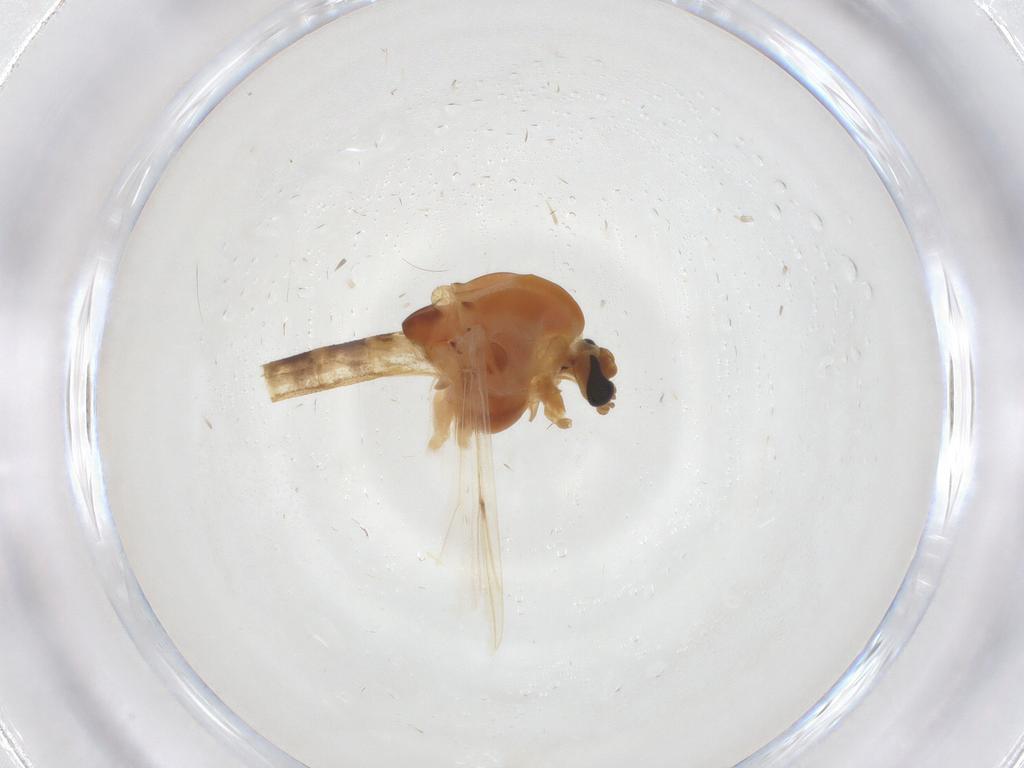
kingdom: Animalia
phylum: Arthropoda
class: Insecta
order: Diptera
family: Chironomidae
